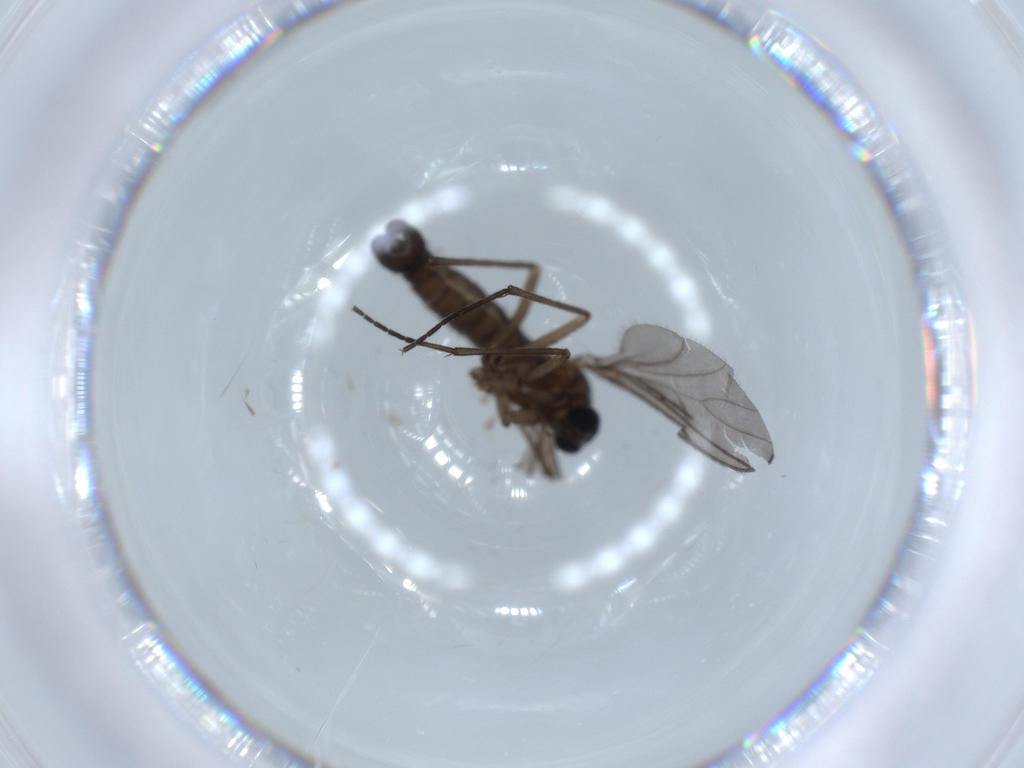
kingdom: Animalia
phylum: Arthropoda
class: Insecta
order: Diptera
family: Sciaridae
